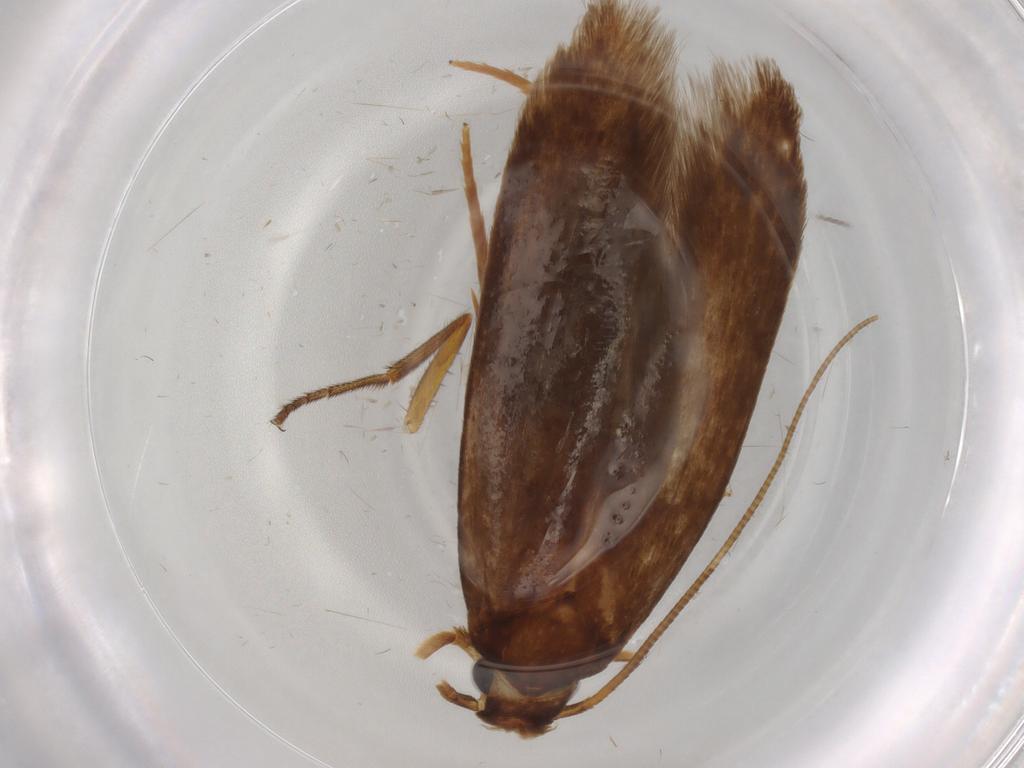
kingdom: Animalia
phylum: Arthropoda
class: Insecta
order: Lepidoptera
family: Tineidae
